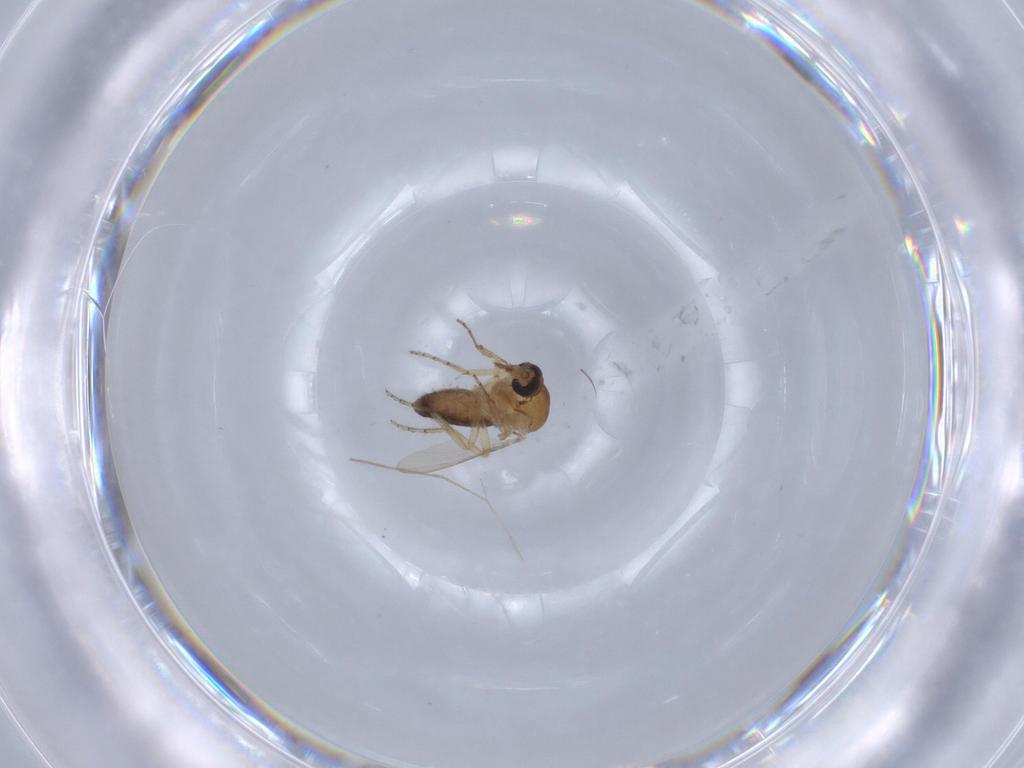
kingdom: Animalia
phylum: Arthropoda
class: Insecta
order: Diptera
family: Ceratopogonidae
